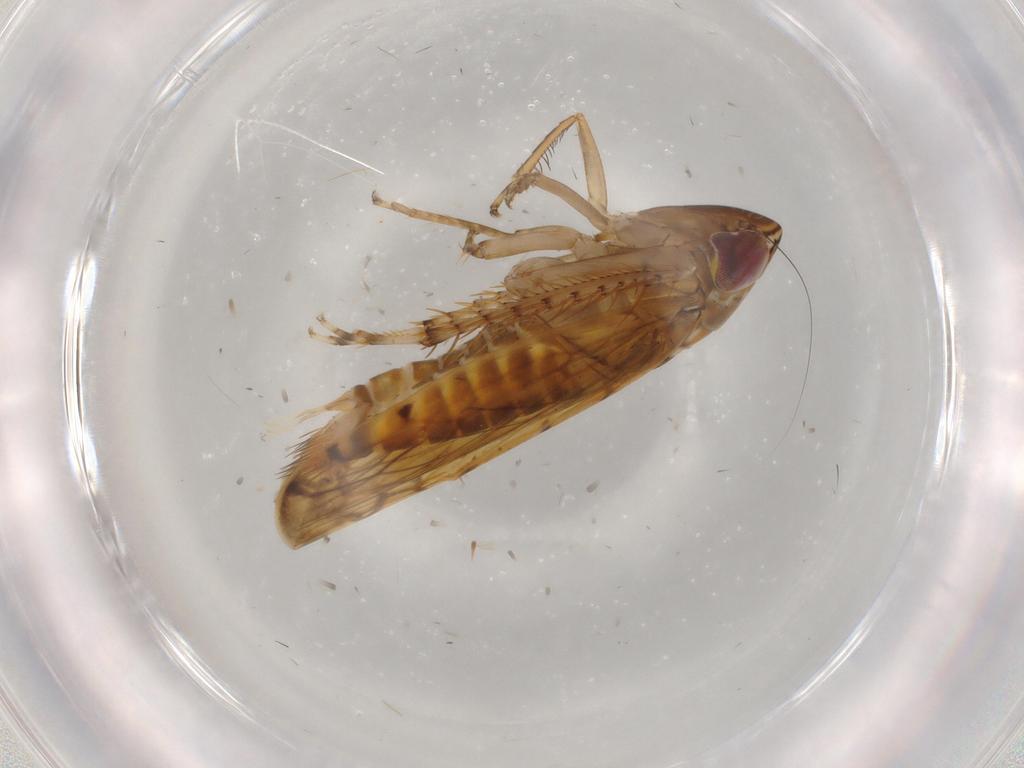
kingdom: Animalia
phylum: Arthropoda
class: Insecta
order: Hemiptera
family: Cicadellidae
